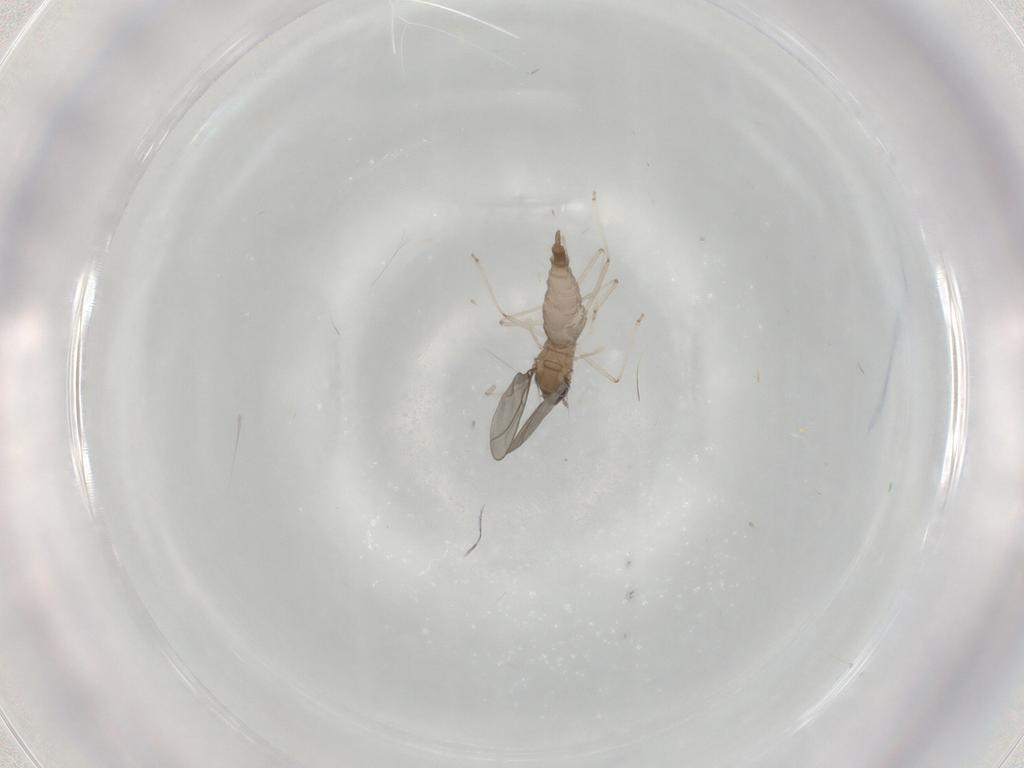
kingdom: Animalia
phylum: Arthropoda
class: Insecta
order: Diptera
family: Cecidomyiidae
